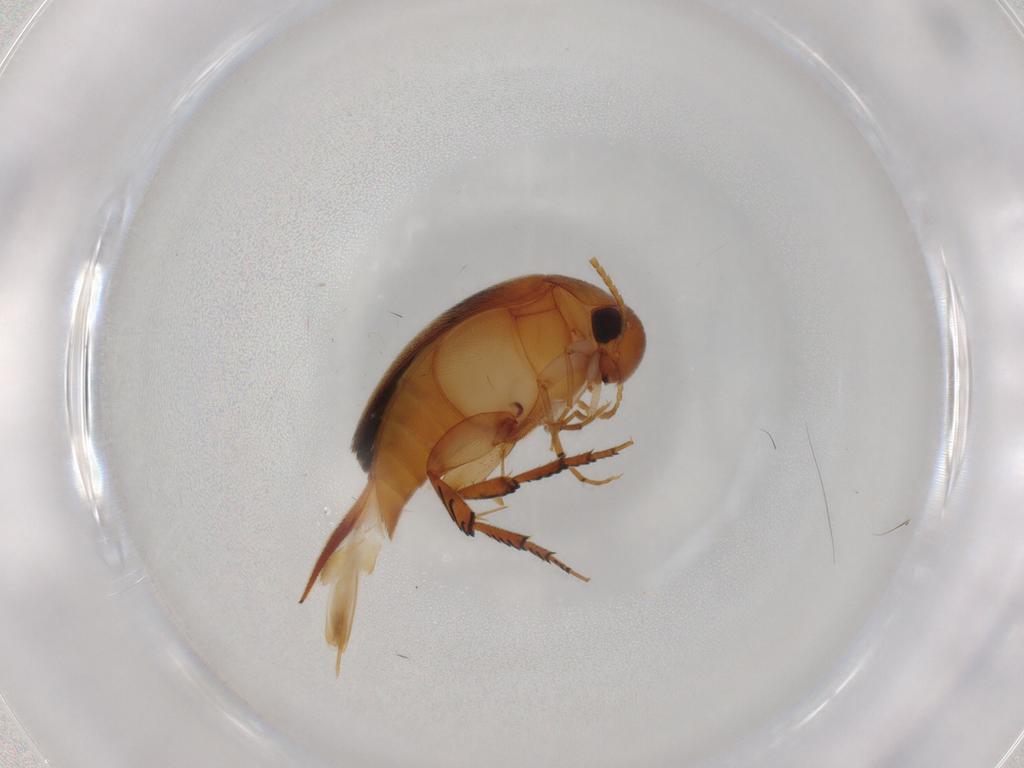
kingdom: Animalia
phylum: Arthropoda
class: Insecta
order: Coleoptera
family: Mordellidae
